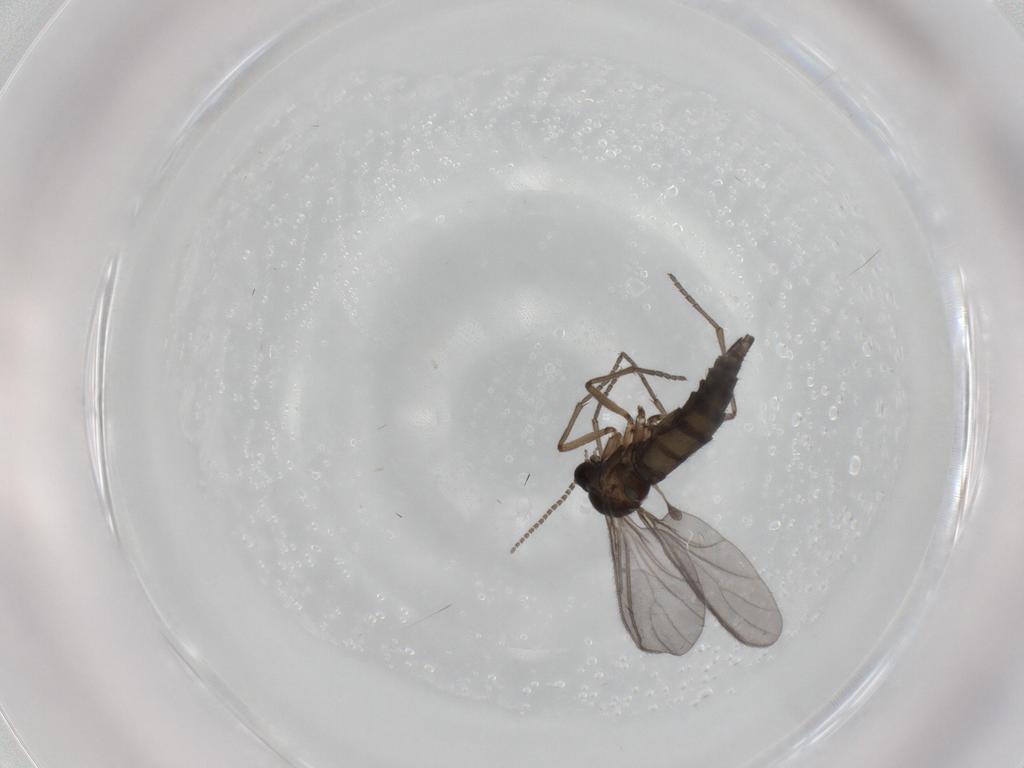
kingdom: Animalia
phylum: Arthropoda
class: Insecta
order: Diptera
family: Sciaridae
